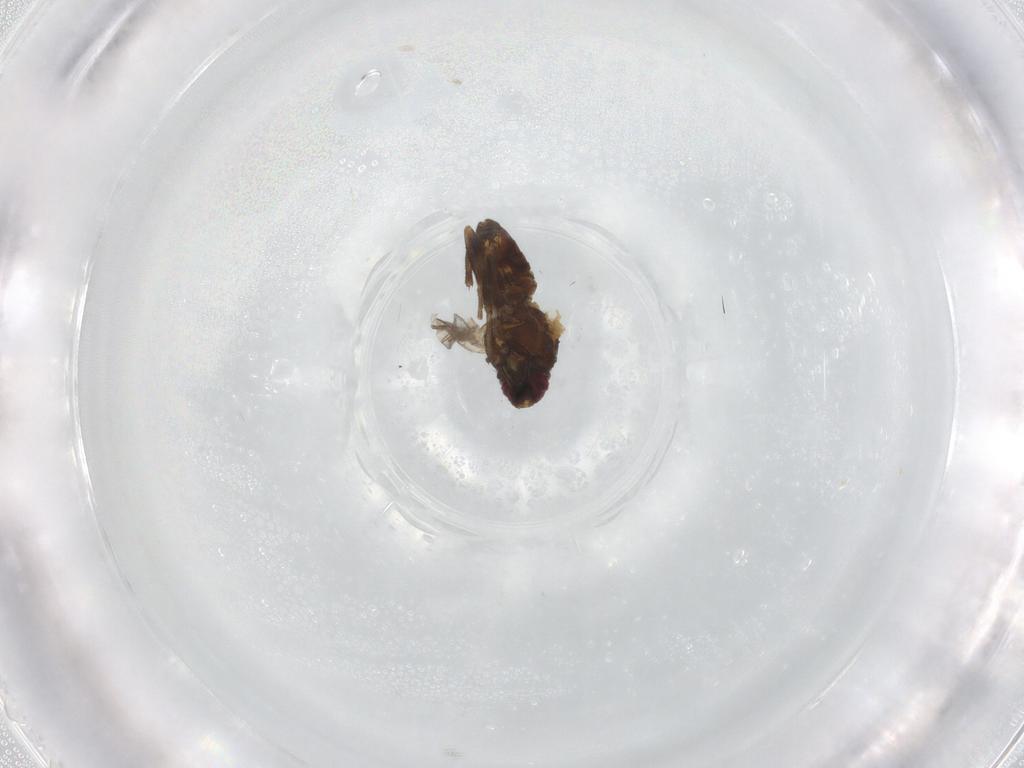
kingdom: Animalia
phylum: Arthropoda
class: Insecta
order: Diptera
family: Agromyzidae
